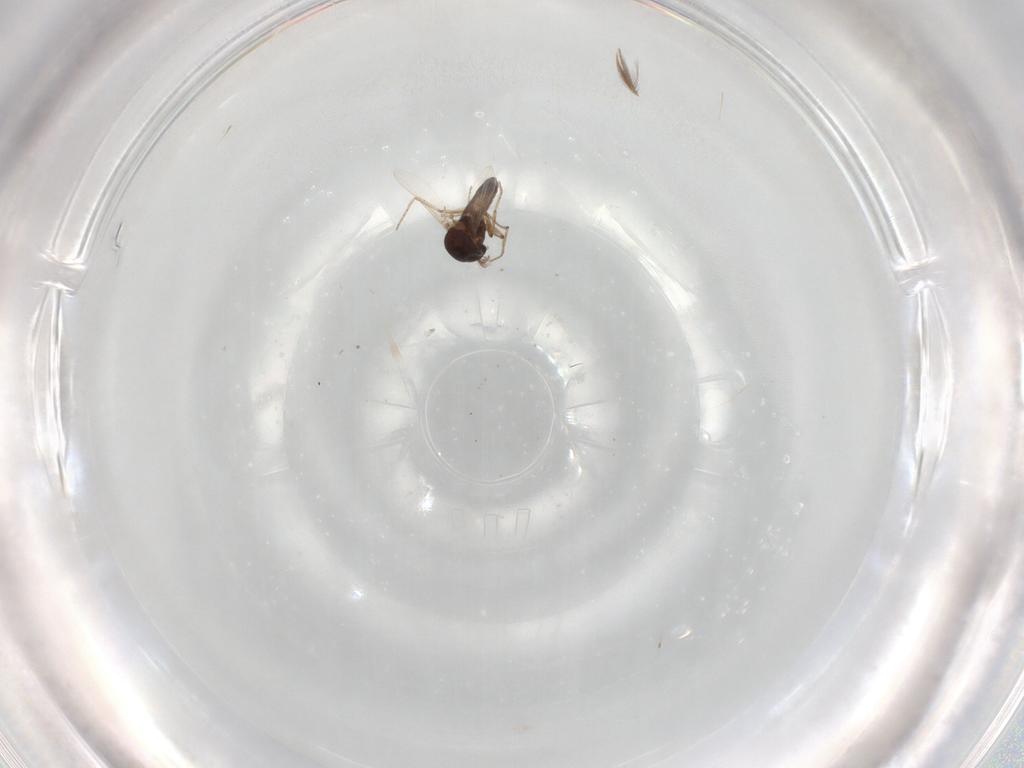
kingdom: Animalia
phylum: Arthropoda
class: Insecta
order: Diptera
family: Ceratopogonidae
